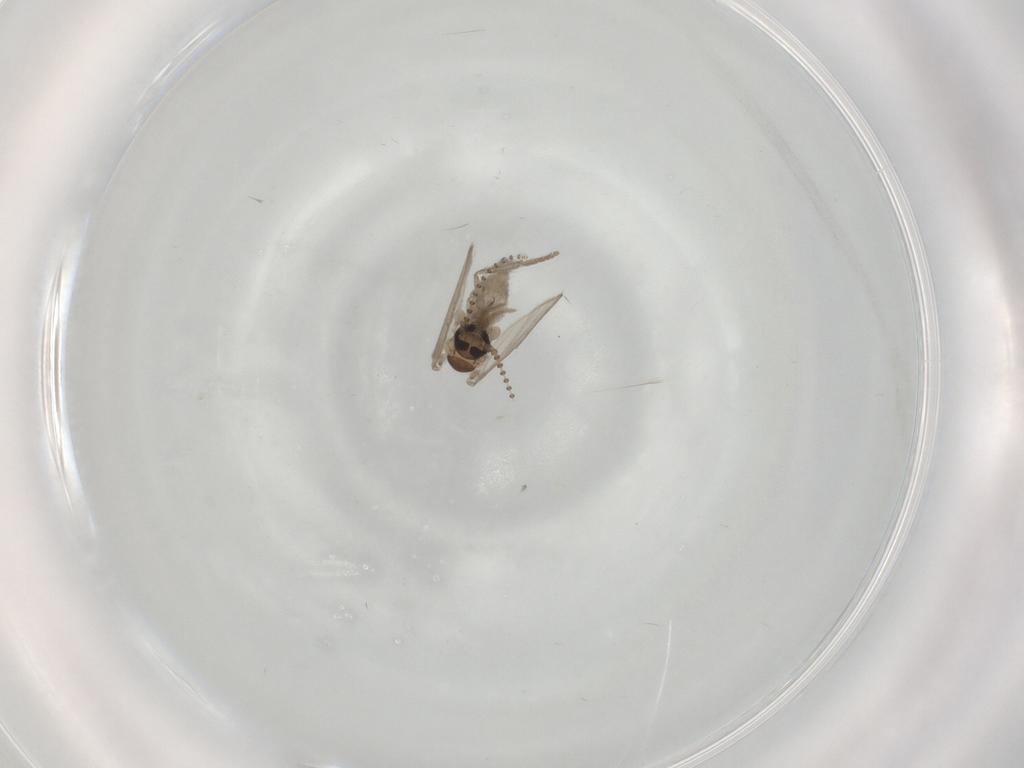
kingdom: Animalia
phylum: Arthropoda
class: Insecta
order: Diptera
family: Psychodidae
